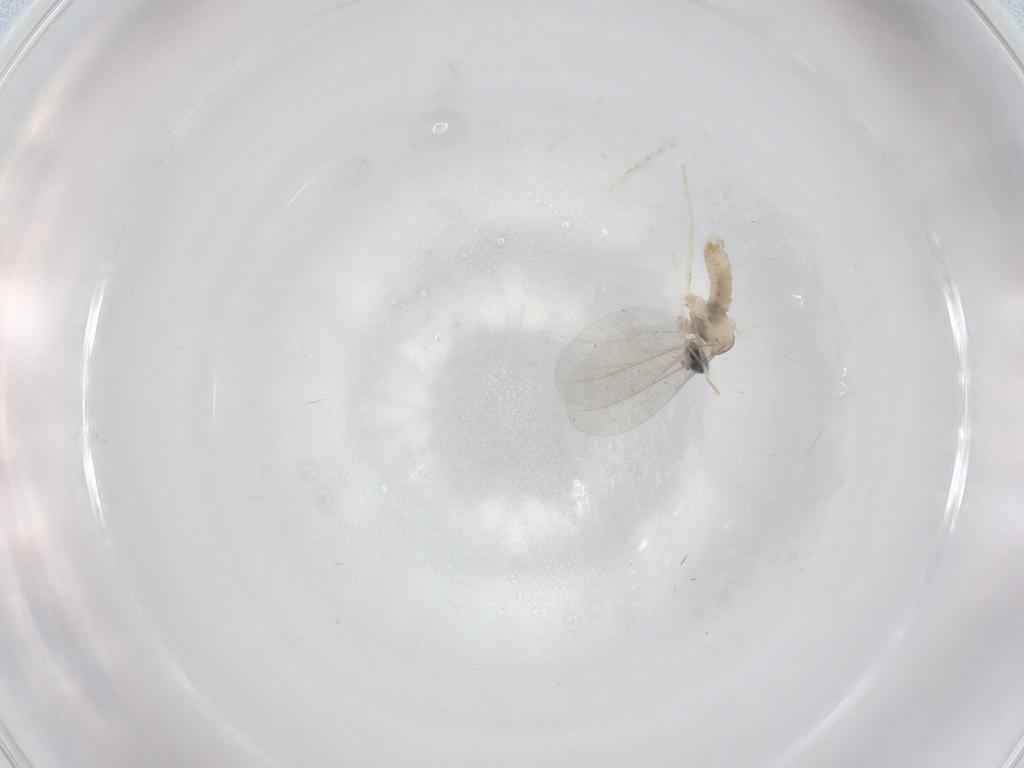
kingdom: Animalia
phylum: Arthropoda
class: Insecta
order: Diptera
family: Cecidomyiidae
